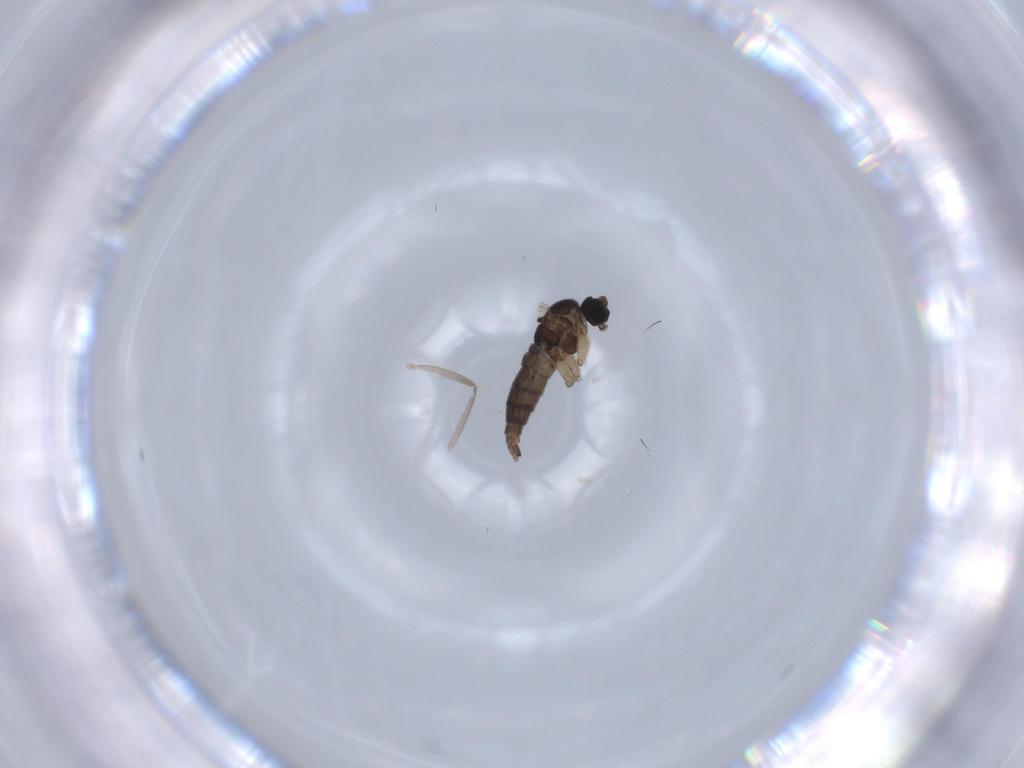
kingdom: Animalia
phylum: Arthropoda
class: Insecta
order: Diptera
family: Sciaridae
